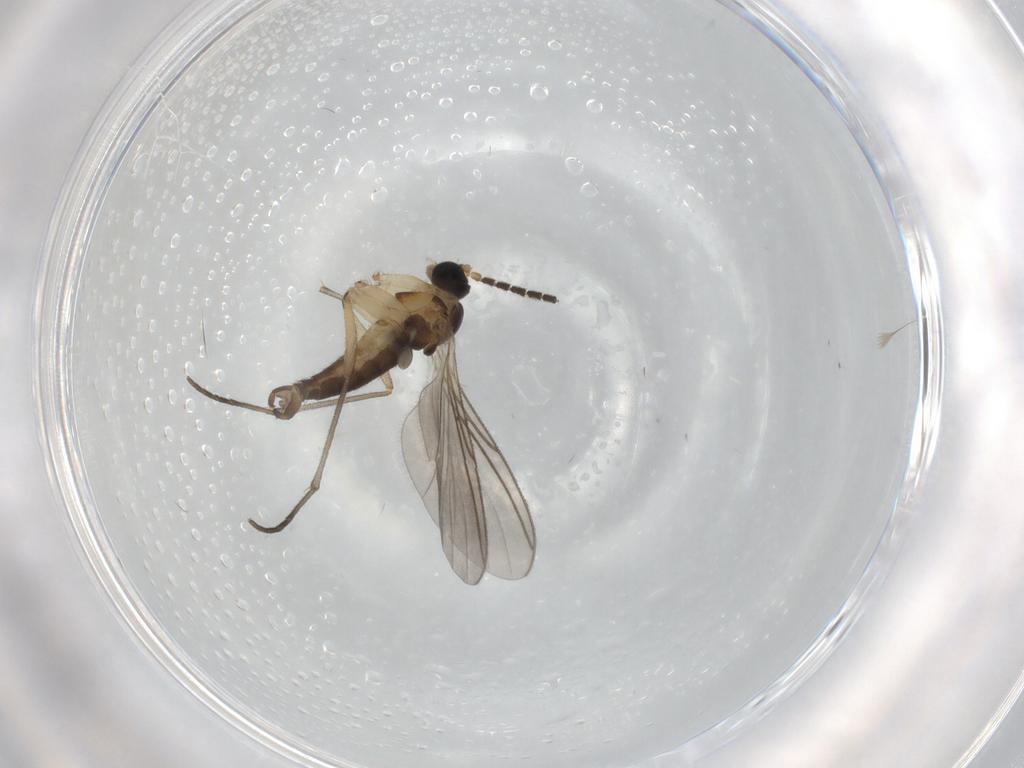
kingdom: Animalia
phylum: Arthropoda
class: Insecta
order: Diptera
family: Sciaridae
